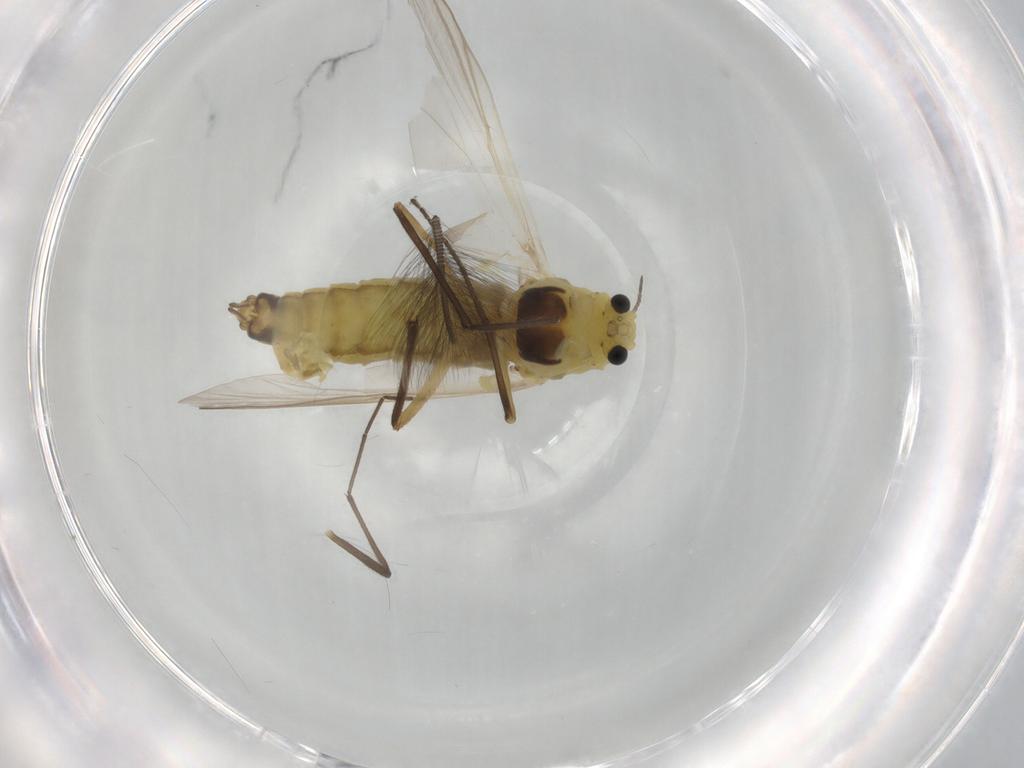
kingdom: Animalia
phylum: Arthropoda
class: Insecta
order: Diptera
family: Chironomidae
